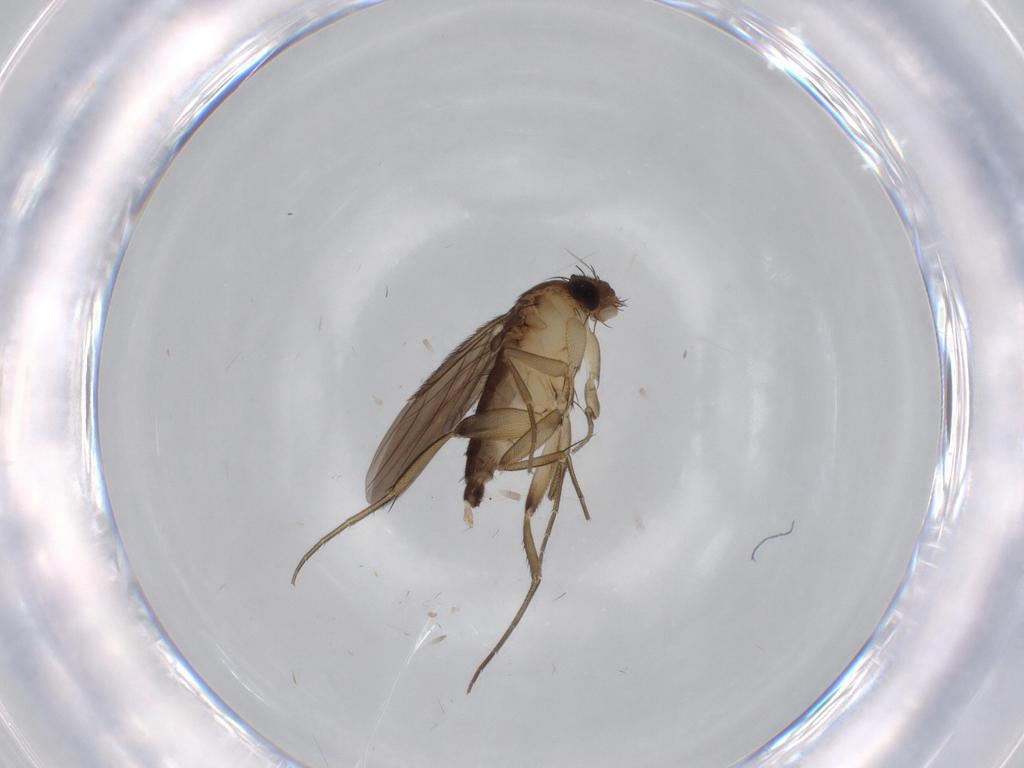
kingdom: Animalia
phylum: Arthropoda
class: Insecta
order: Diptera
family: Phoridae
